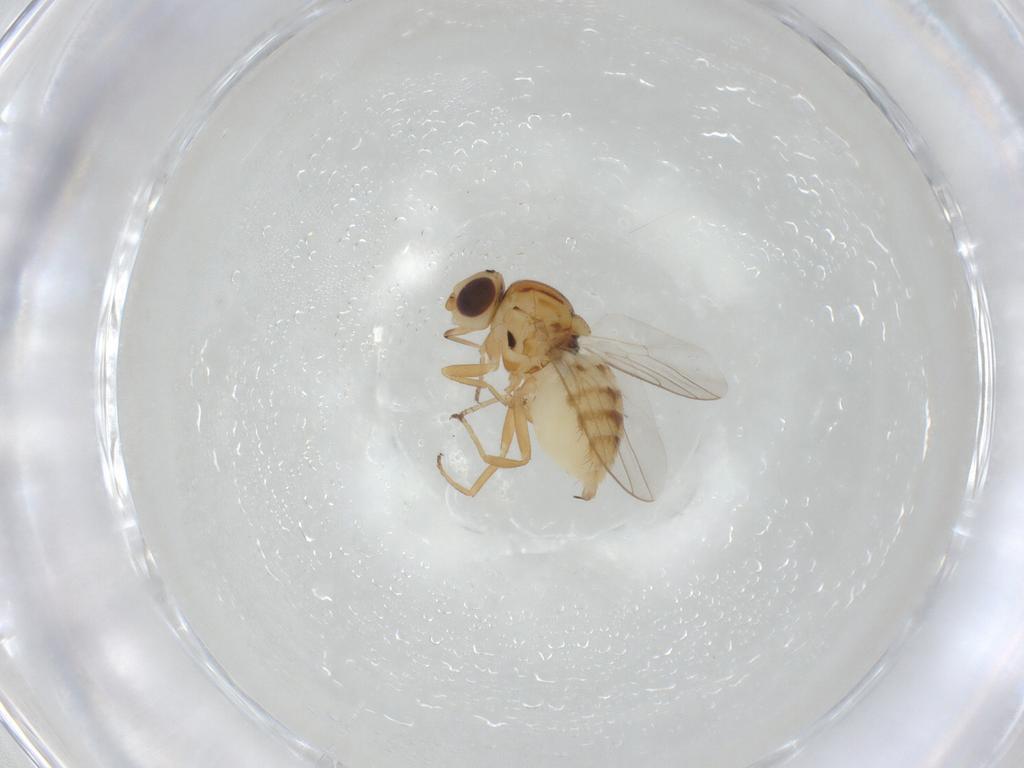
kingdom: Animalia
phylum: Arthropoda
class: Insecta
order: Diptera
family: Chloropidae
